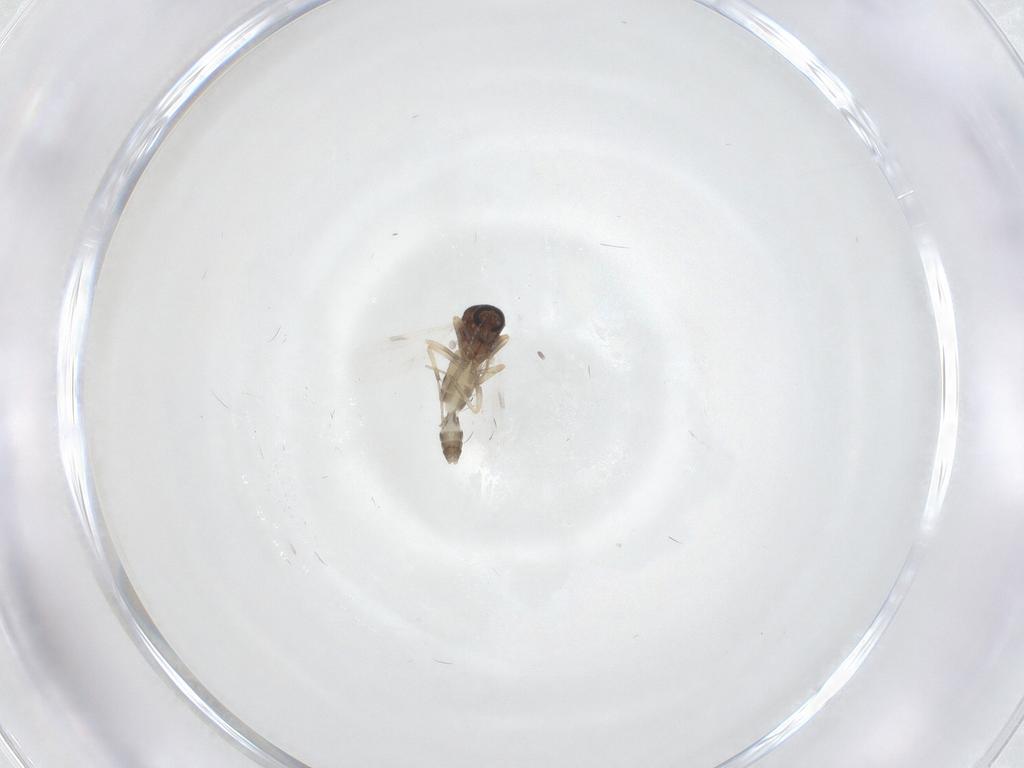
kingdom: Animalia
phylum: Arthropoda
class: Insecta
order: Diptera
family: Ceratopogonidae
